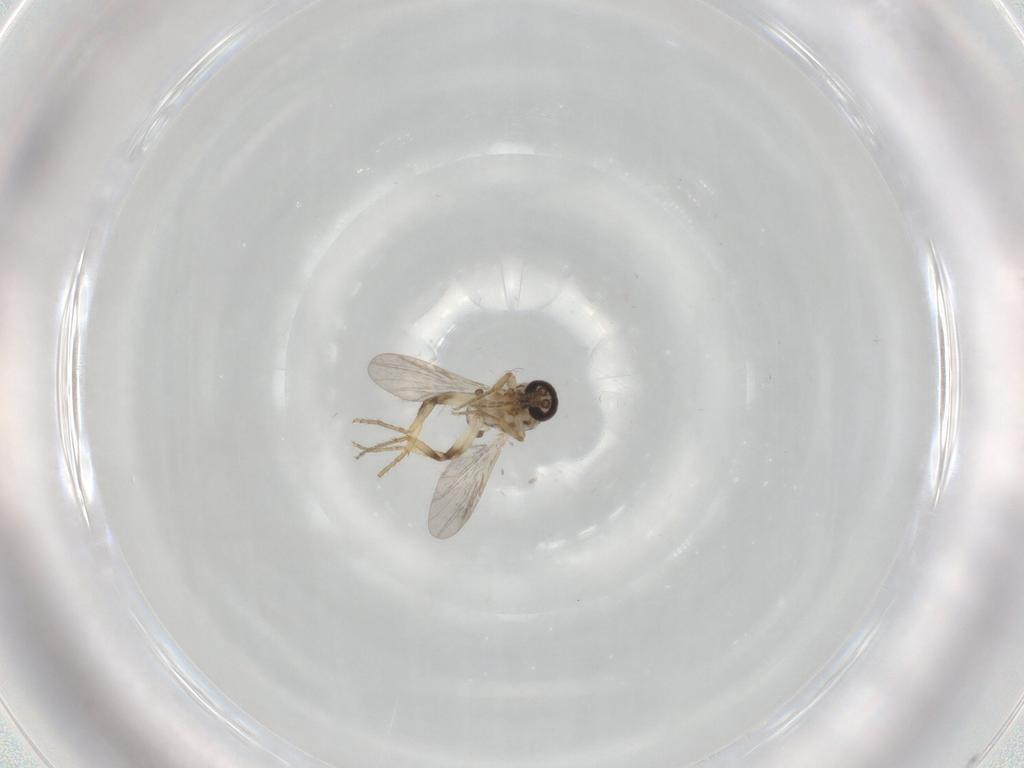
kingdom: Animalia
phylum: Arthropoda
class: Insecta
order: Diptera
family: Ceratopogonidae
